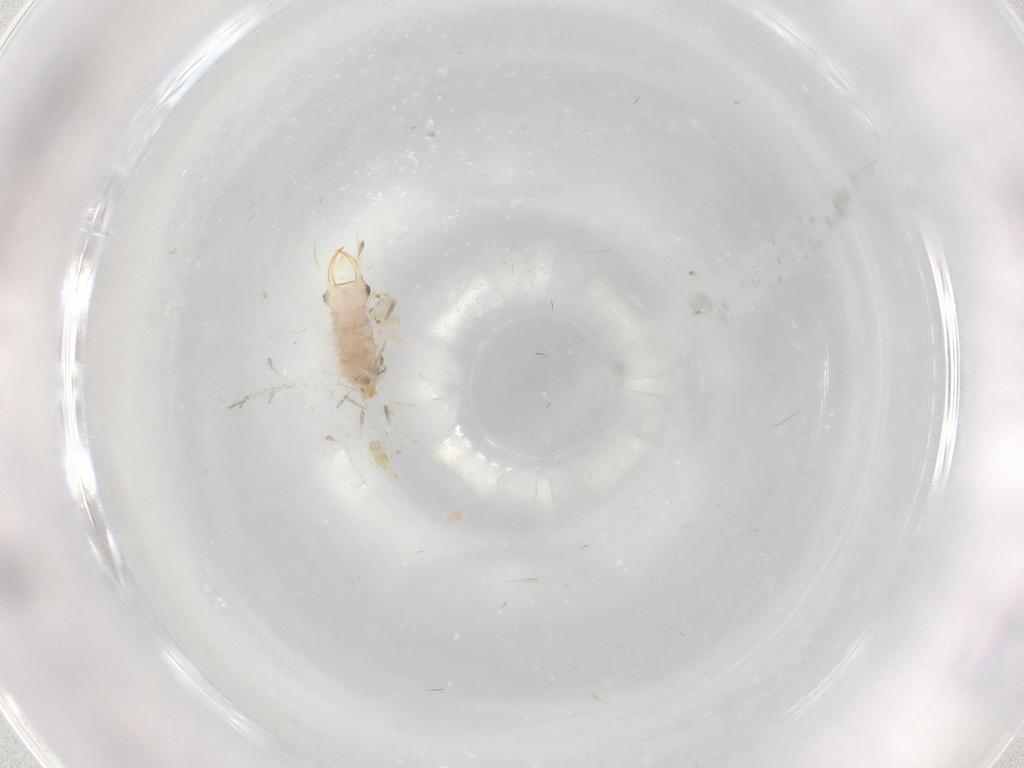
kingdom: Animalia
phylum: Arthropoda
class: Insecta
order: Neuroptera
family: Chrysopidae
